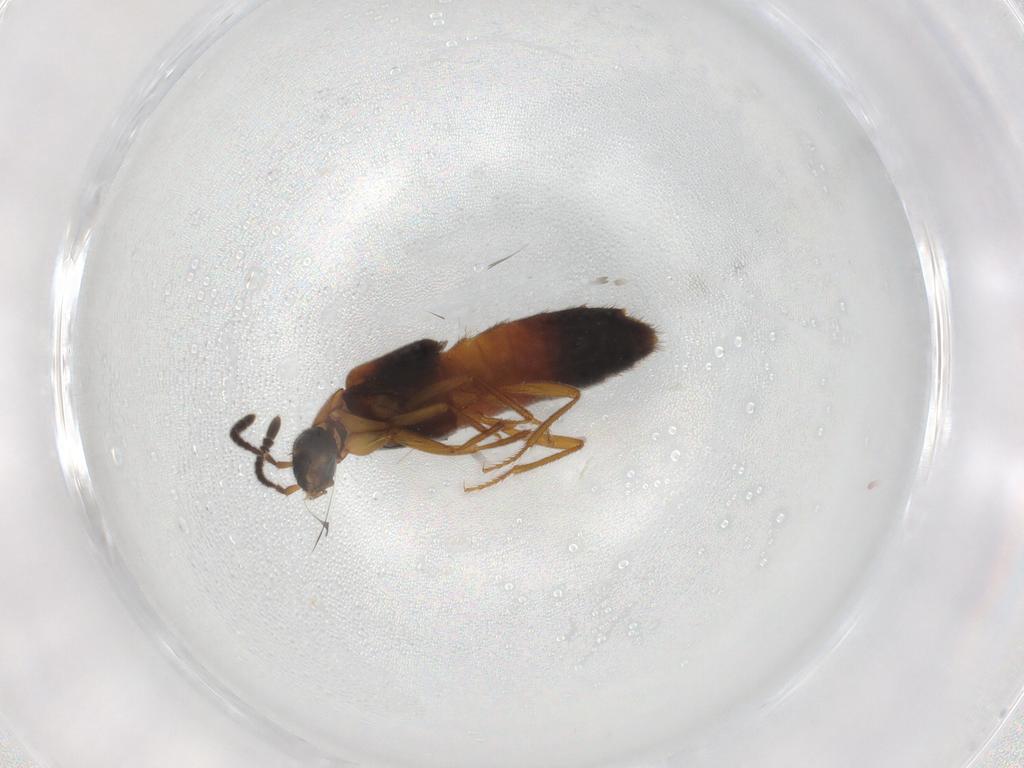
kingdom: Animalia
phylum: Arthropoda
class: Insecta
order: Coleoptera
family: Staphylinidae
